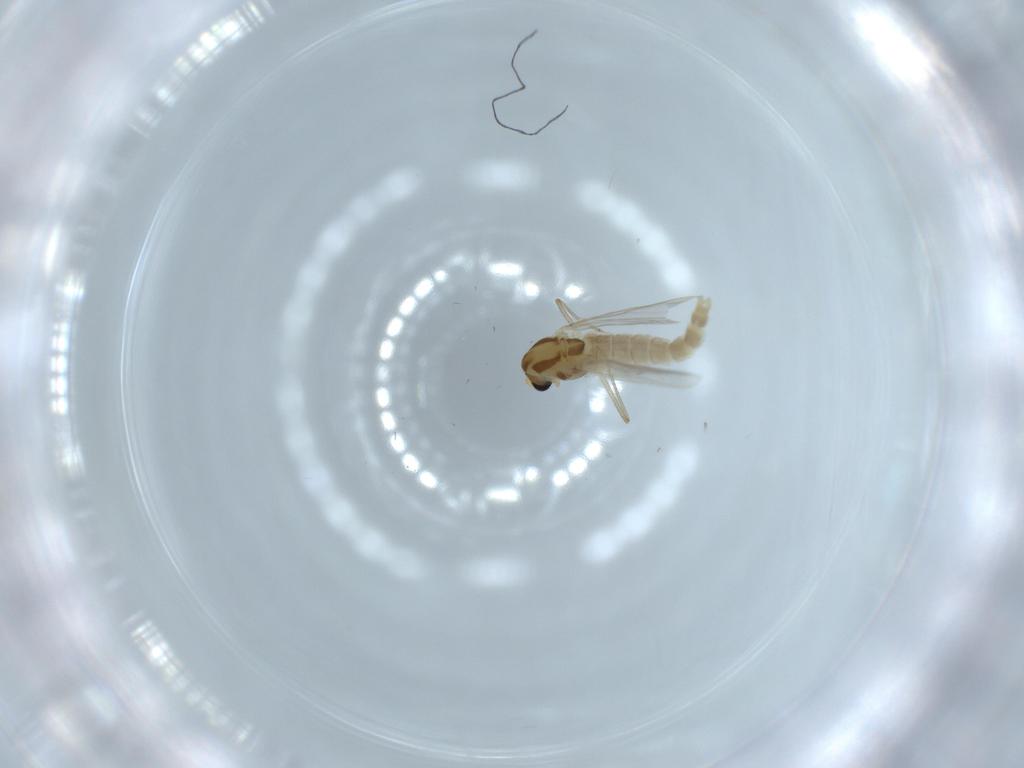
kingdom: Animalia
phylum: Arthropoda
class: Insecta
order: Diptera
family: Chironomidae
